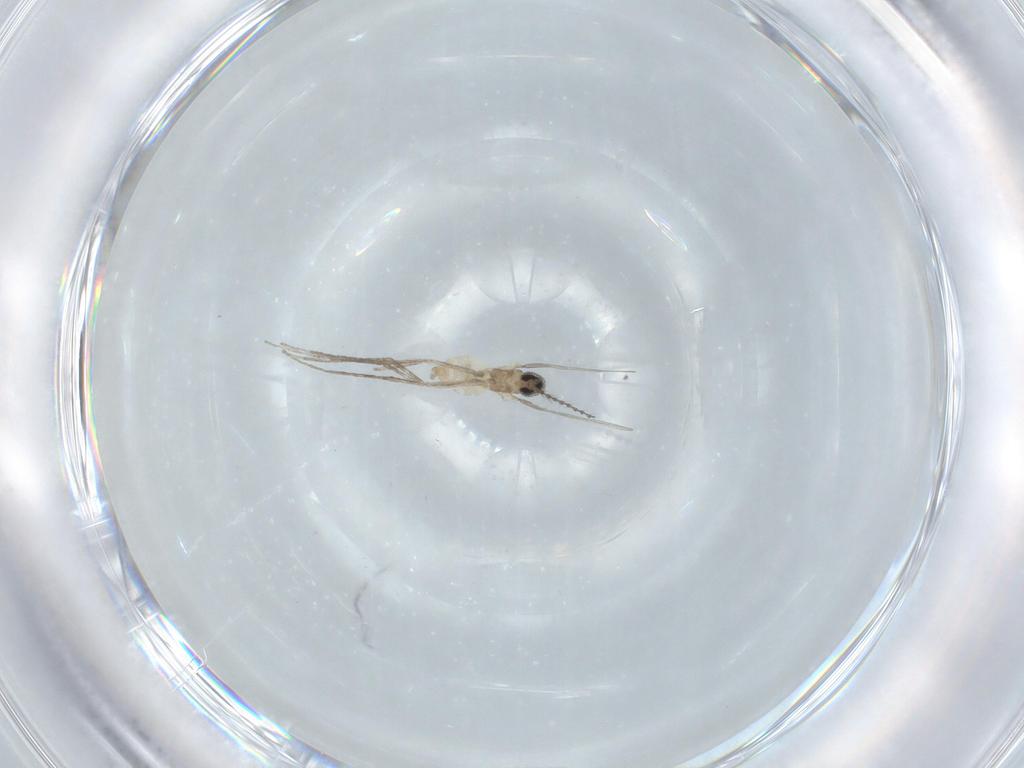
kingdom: Animalia
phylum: Arthropoda
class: Insecta
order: Diptera
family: Cecidomyiidae
